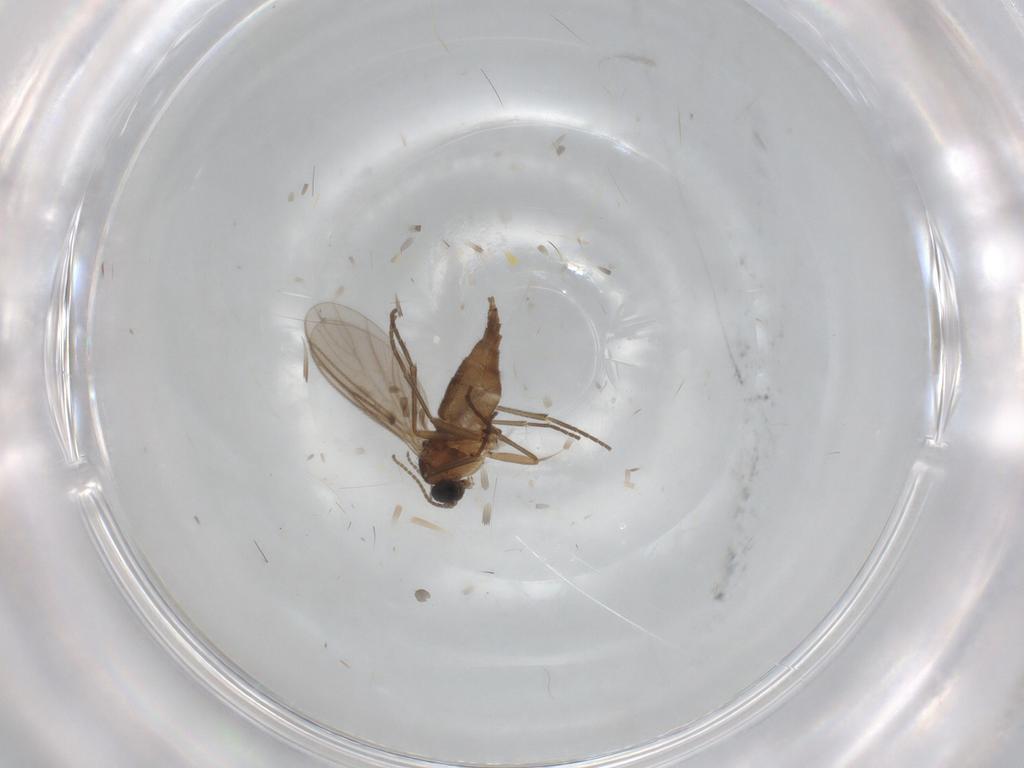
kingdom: Animalia
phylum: Arthropoda
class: Insecta
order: Diptera
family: Sciaridae
